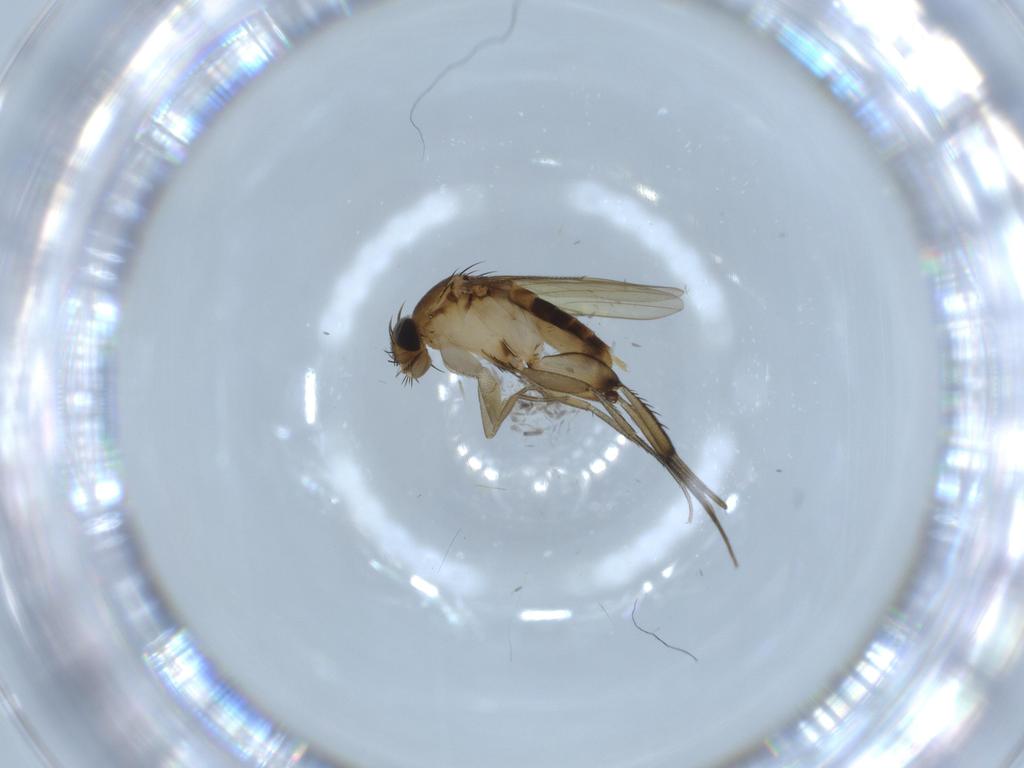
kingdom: Animalia
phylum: Arthropoda
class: Insecta
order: Diptera
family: Phoridae
